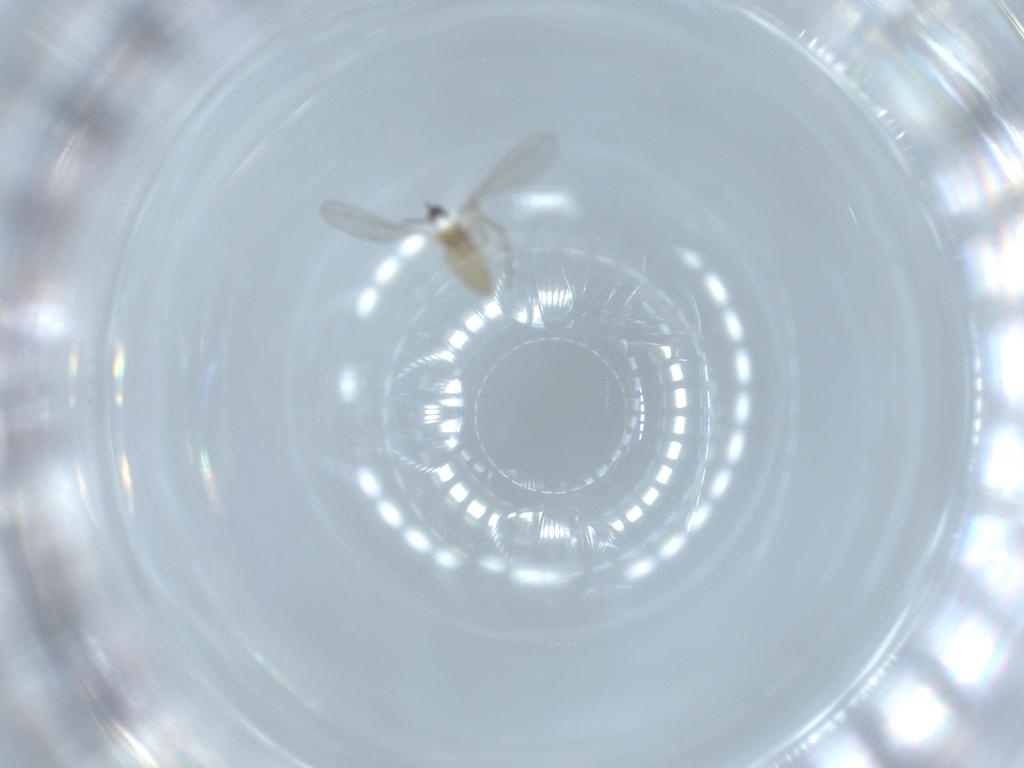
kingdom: Animalia
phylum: Arthropoda
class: Insecta
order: Diptera
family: Chironomidae
